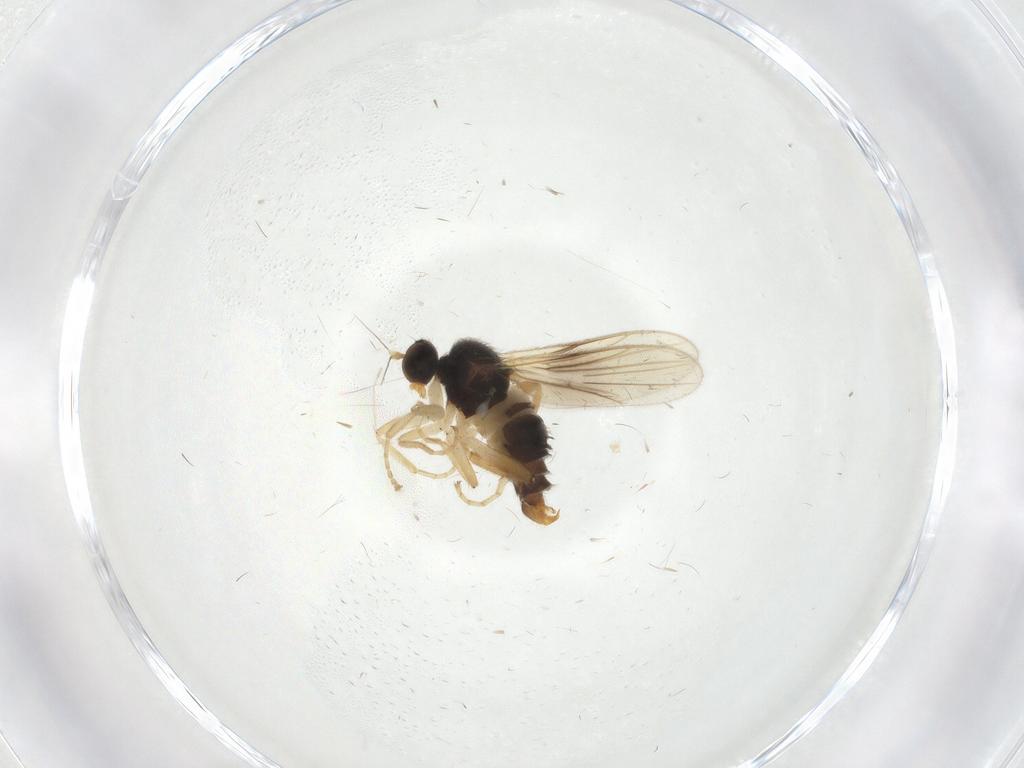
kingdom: Animalia
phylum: Arthropoda
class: Insecta
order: Diptera
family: Hybotidae
